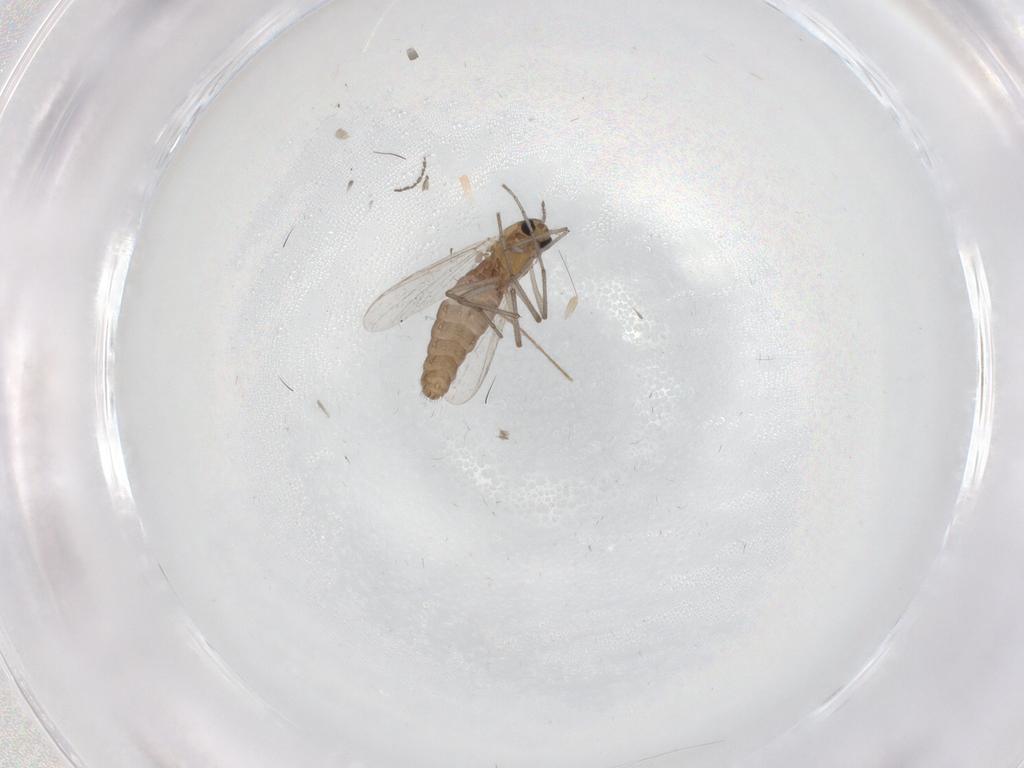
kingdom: Animalia
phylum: Arthropoda
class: Insecta
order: Diptera
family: Chironomidae
